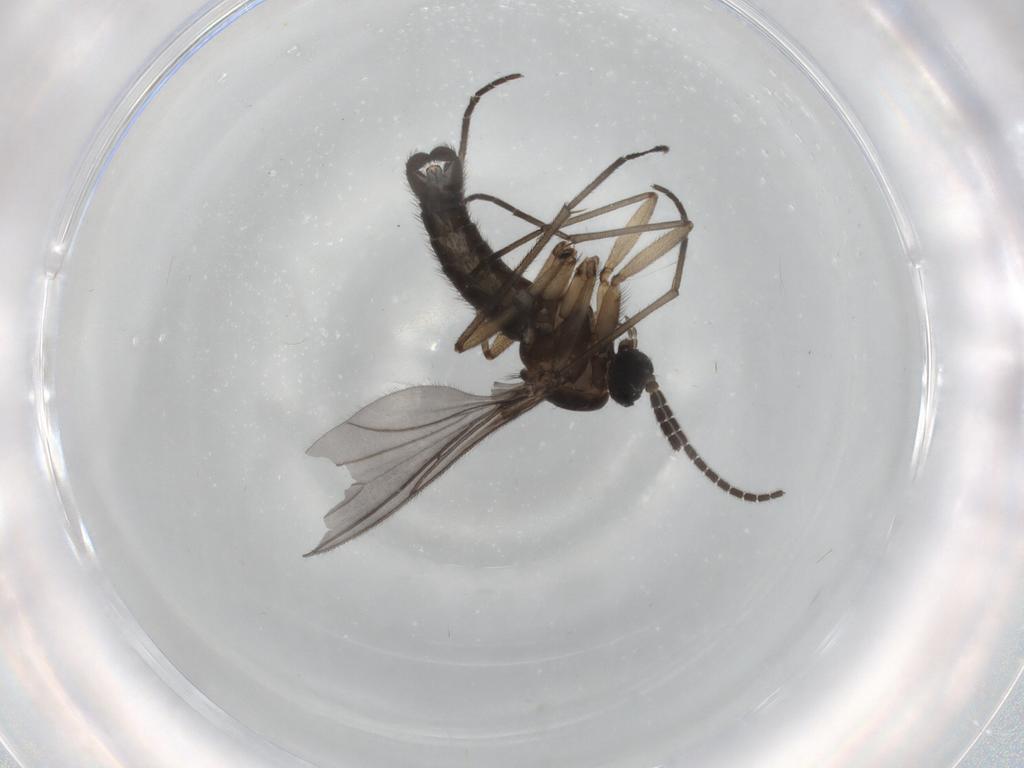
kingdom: Animalia
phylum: Arthropoda
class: Insecta
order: Diptera
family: Sciaridae
